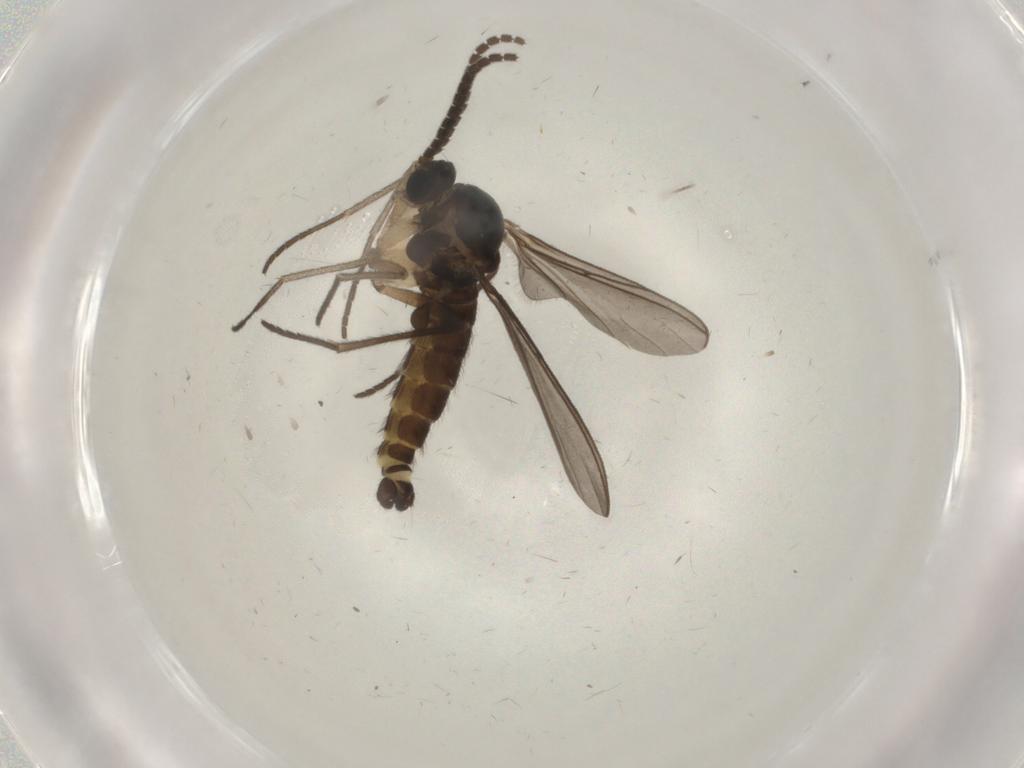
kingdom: Animalia
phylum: Arthropoda
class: Insecta
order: Diptera
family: Sciaridae
